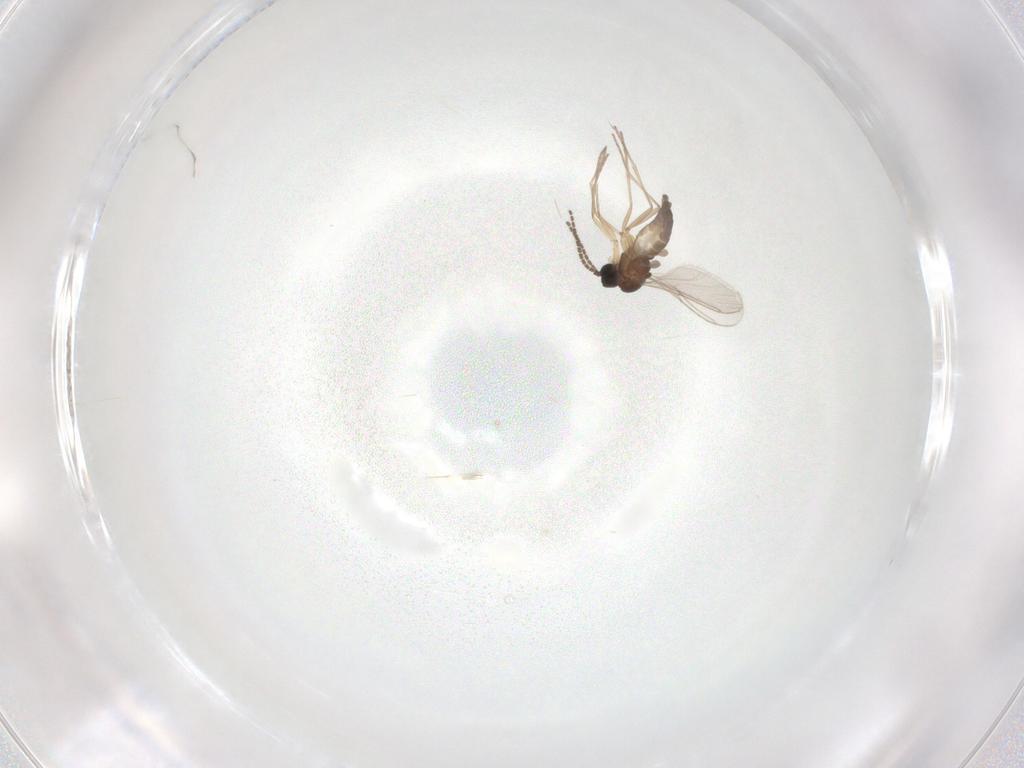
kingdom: Animalia
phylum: Arthropoda
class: Insecta
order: Diptera
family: Sciaridae
